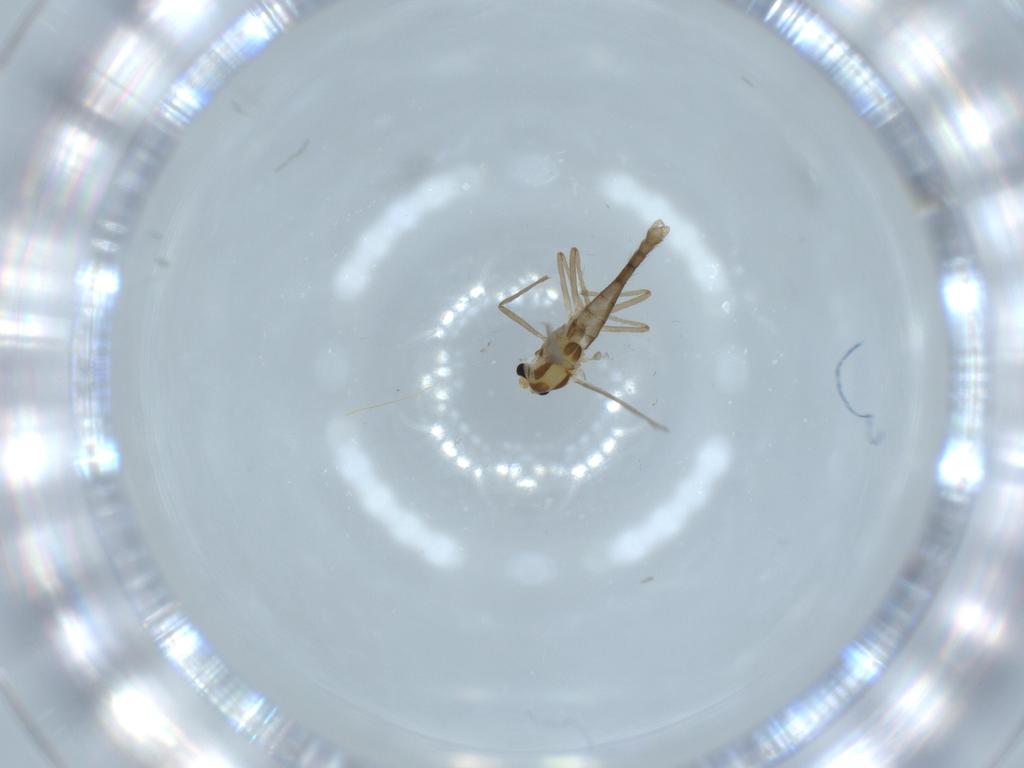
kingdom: Animalia
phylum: Arthropoda
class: Insecta
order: Diptera
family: Chironomidae
